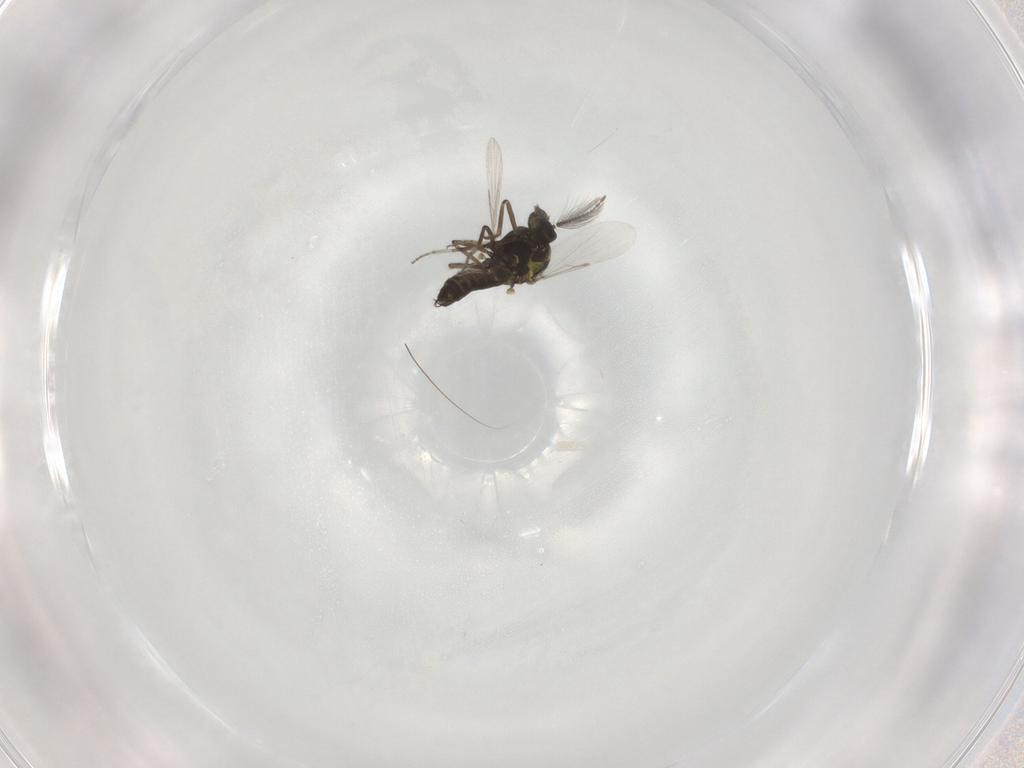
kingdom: Animalia
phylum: Arthropoda
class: Insecta
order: Diptera
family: Ceratopogonidae
